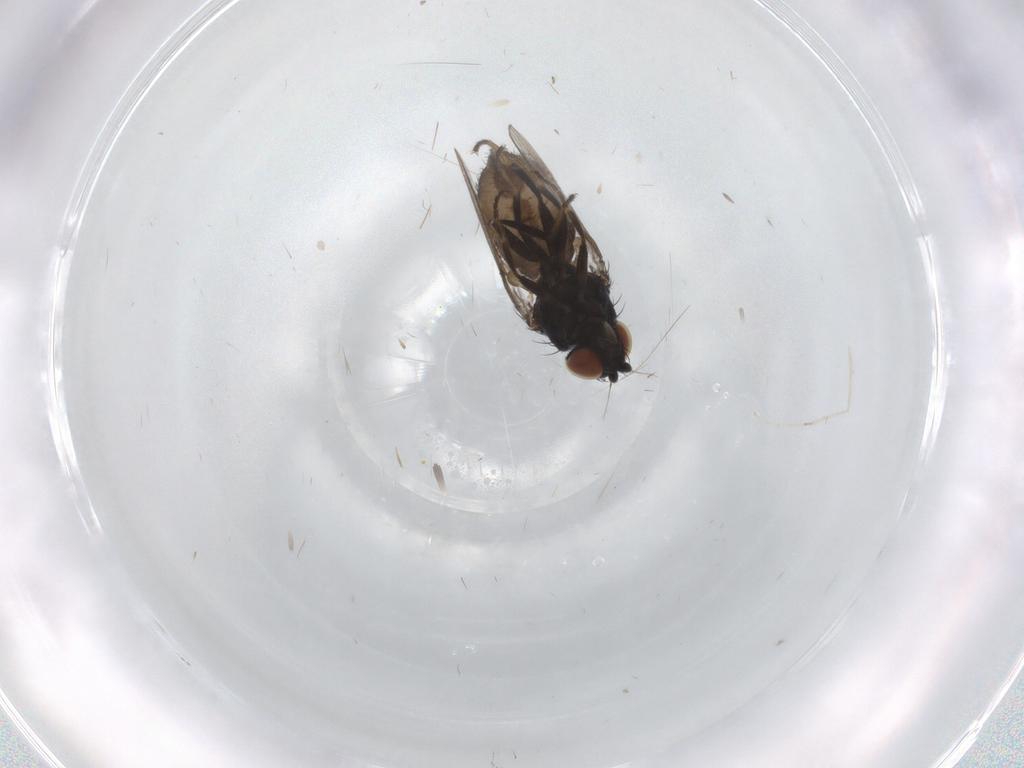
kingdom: Animalia
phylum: Arthropoda
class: Insecta
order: Diptera
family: Milichiidae
